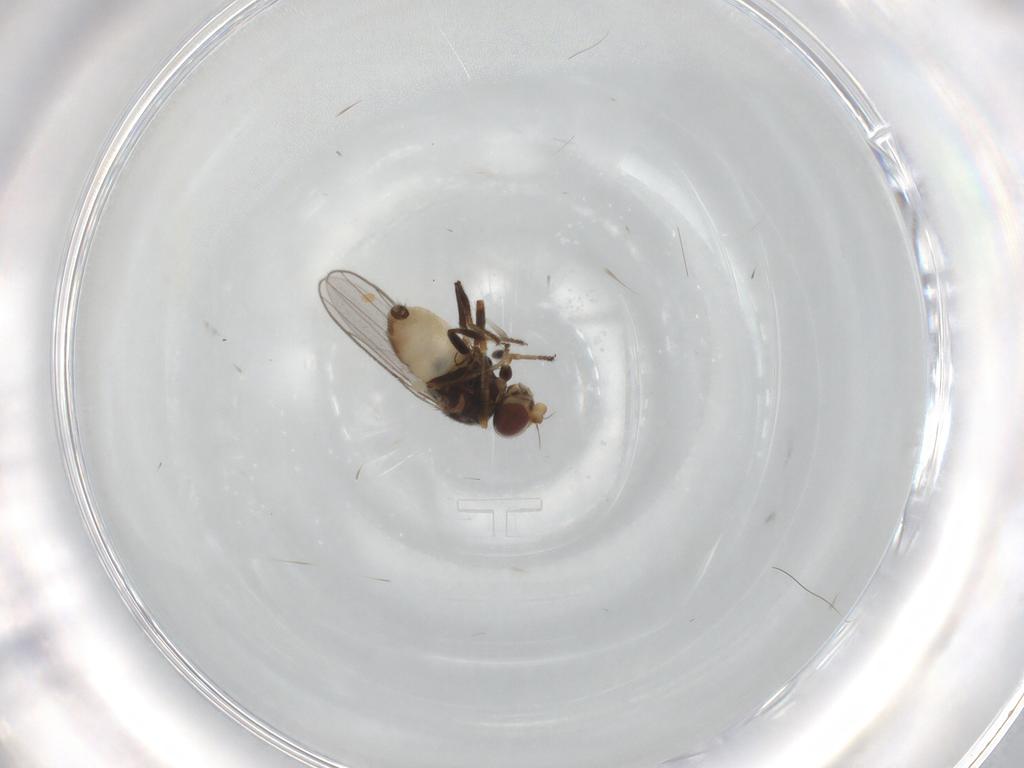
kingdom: Animalia
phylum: Arthropoda
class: Insecta
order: Diptera
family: Chloropidae
